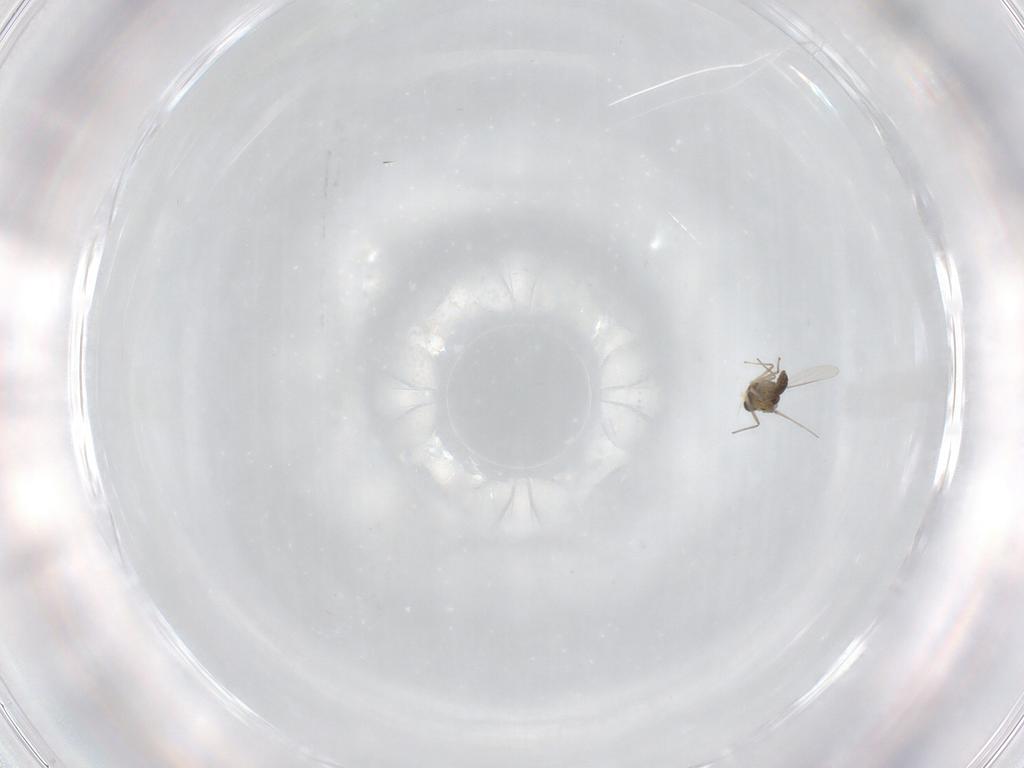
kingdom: Animalia
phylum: Arthropoda
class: Insecta
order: Diptera
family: Chironomidae
